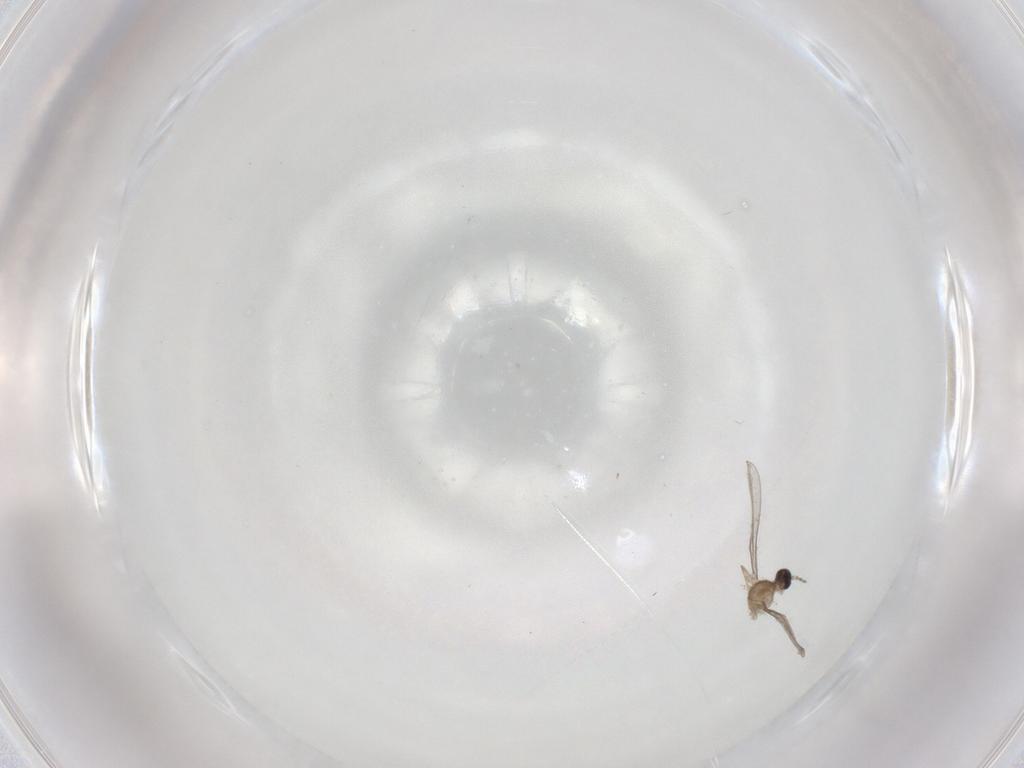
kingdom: Animalia
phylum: Arthropoda
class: Insecta
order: Diptera
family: Cecidomyiidae
